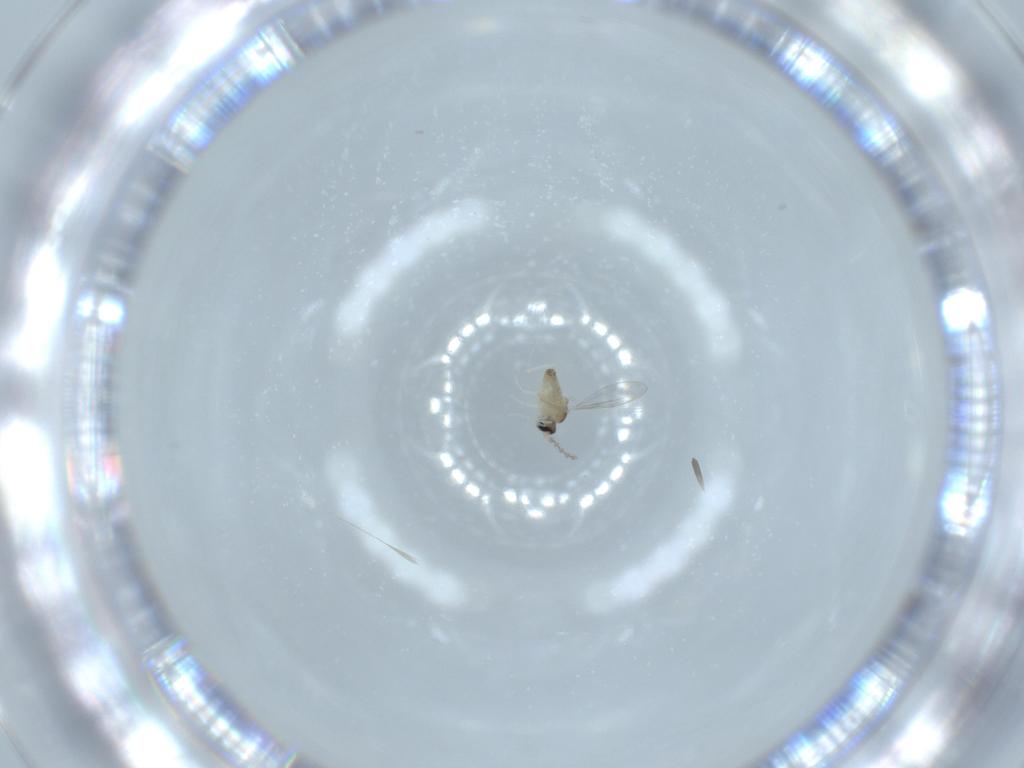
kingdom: Animalia
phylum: Arthropoda
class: Insecta
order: Diptera
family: Cecidomyiidae
